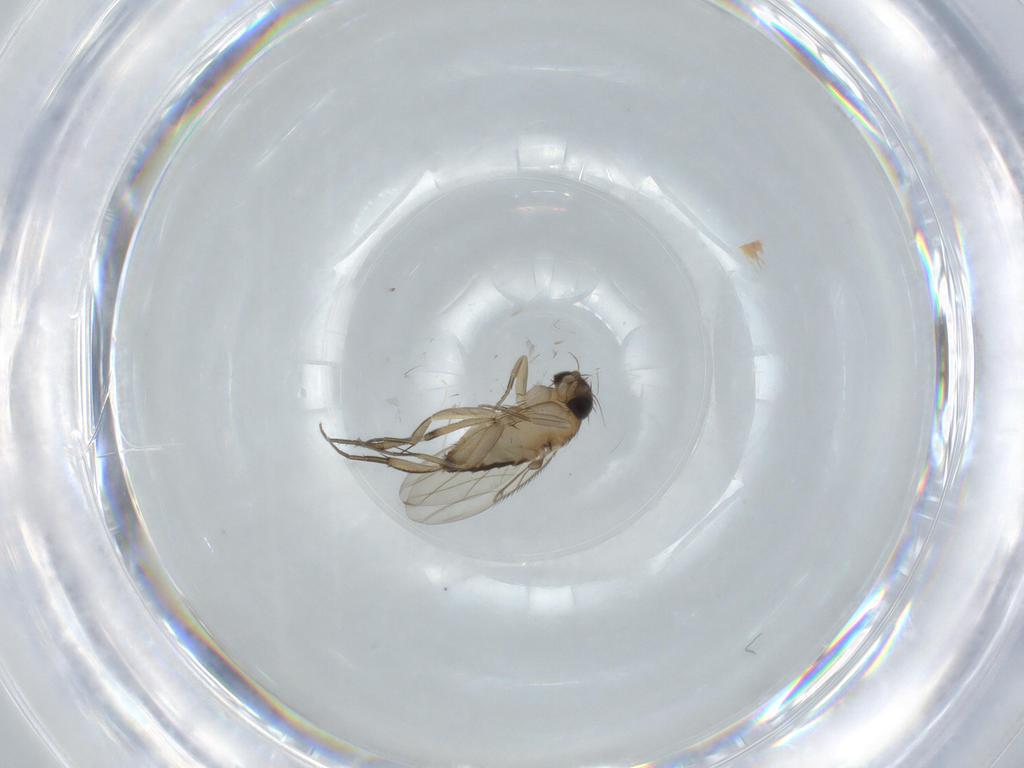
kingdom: Animalia
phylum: Arthropoda
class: Insecta
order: Diptera
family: Phoridae
